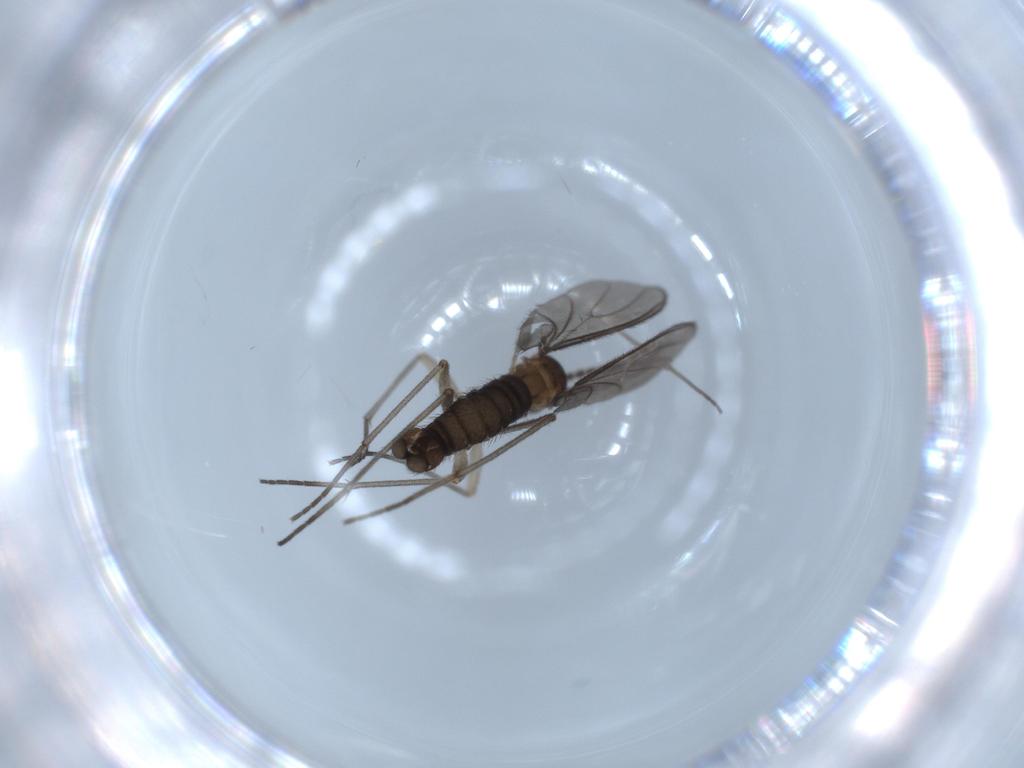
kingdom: Animalia
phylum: Arthropoda
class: Insecta
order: Diptera
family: Sciaridae
